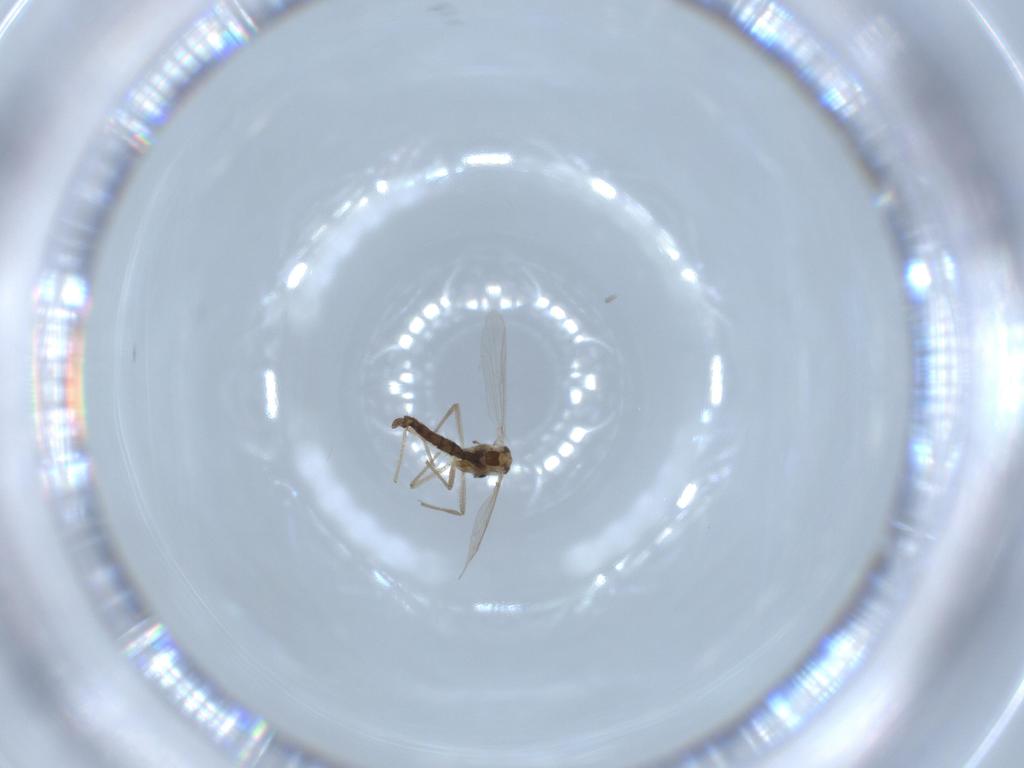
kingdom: Animalia
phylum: Arthropoda
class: Insecta
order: Diptera
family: Chironomidae
